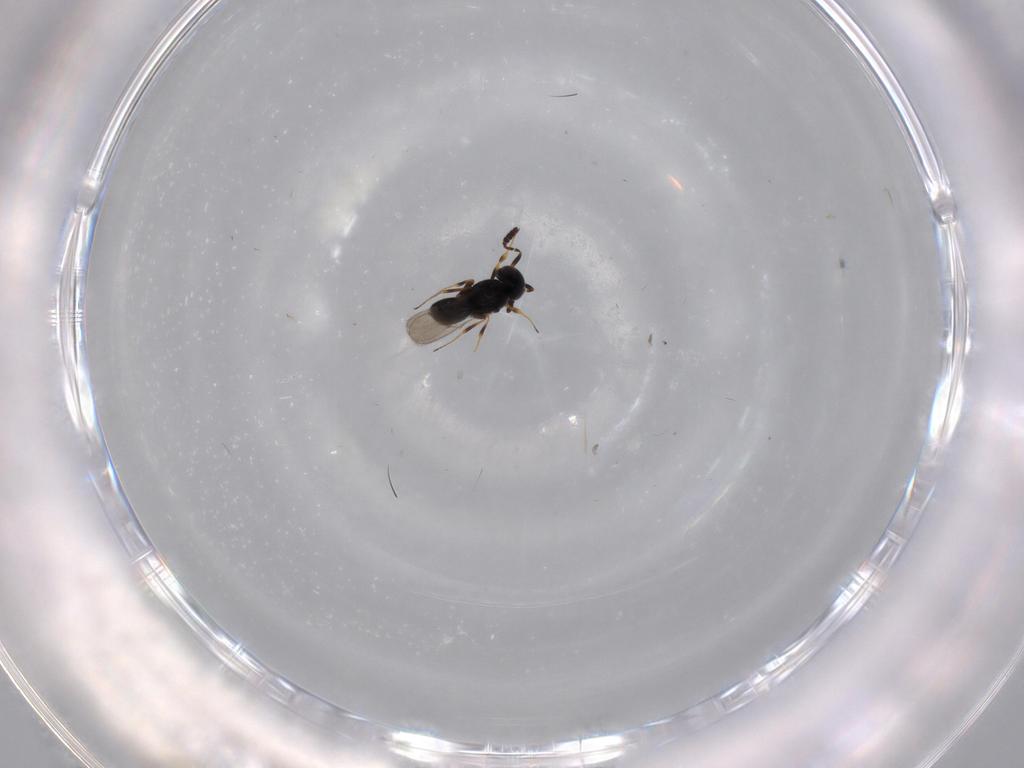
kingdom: Animalia
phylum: Arthropoda
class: Insecta
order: Hymenoptera
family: Scelionidae
